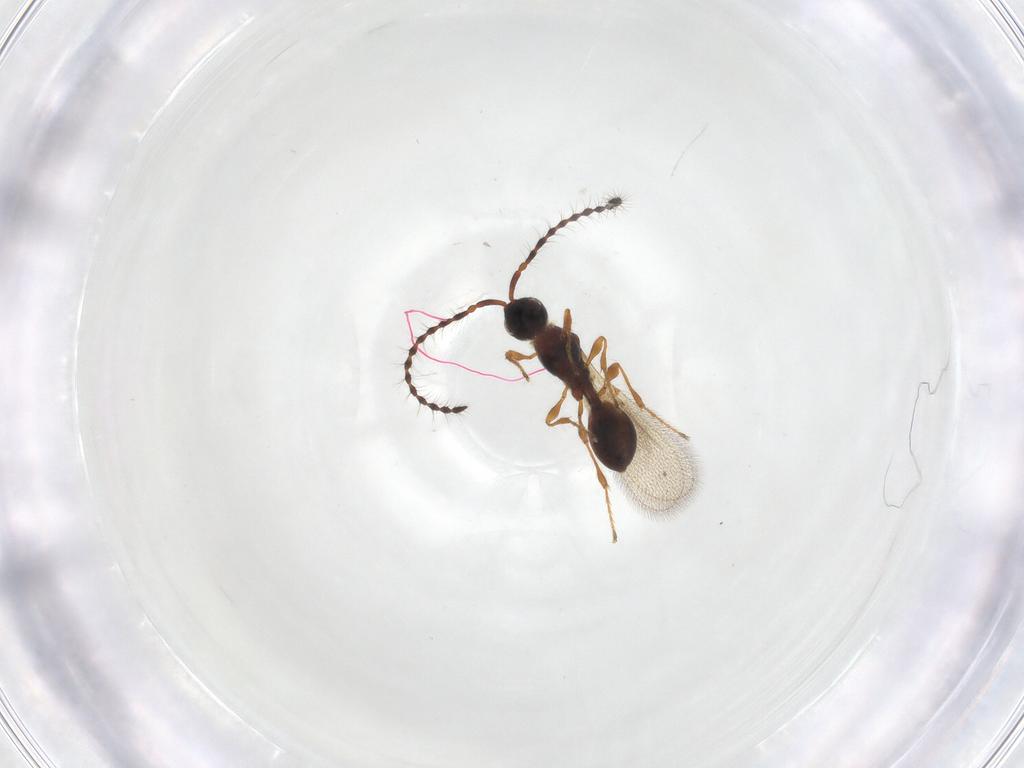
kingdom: Animalia
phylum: Arthropoda
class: Insecta
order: Hymenoptera
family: Diapriidae
